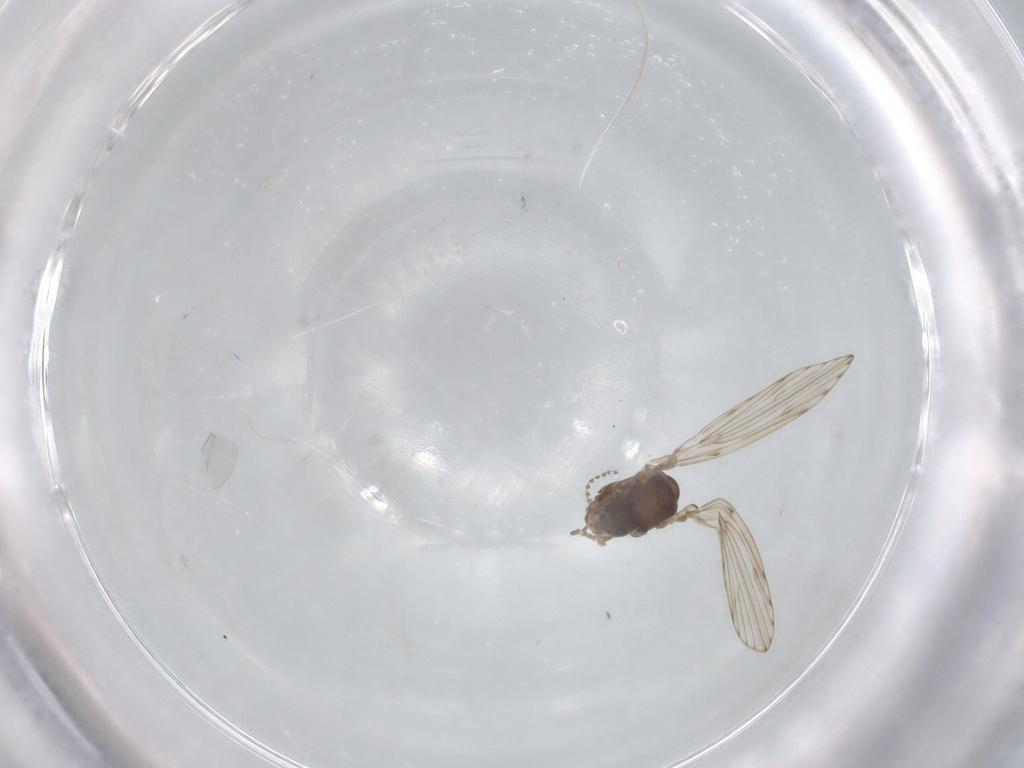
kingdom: Animalia
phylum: Arthropoda
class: Insecta
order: Diptera
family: Psychodidae
